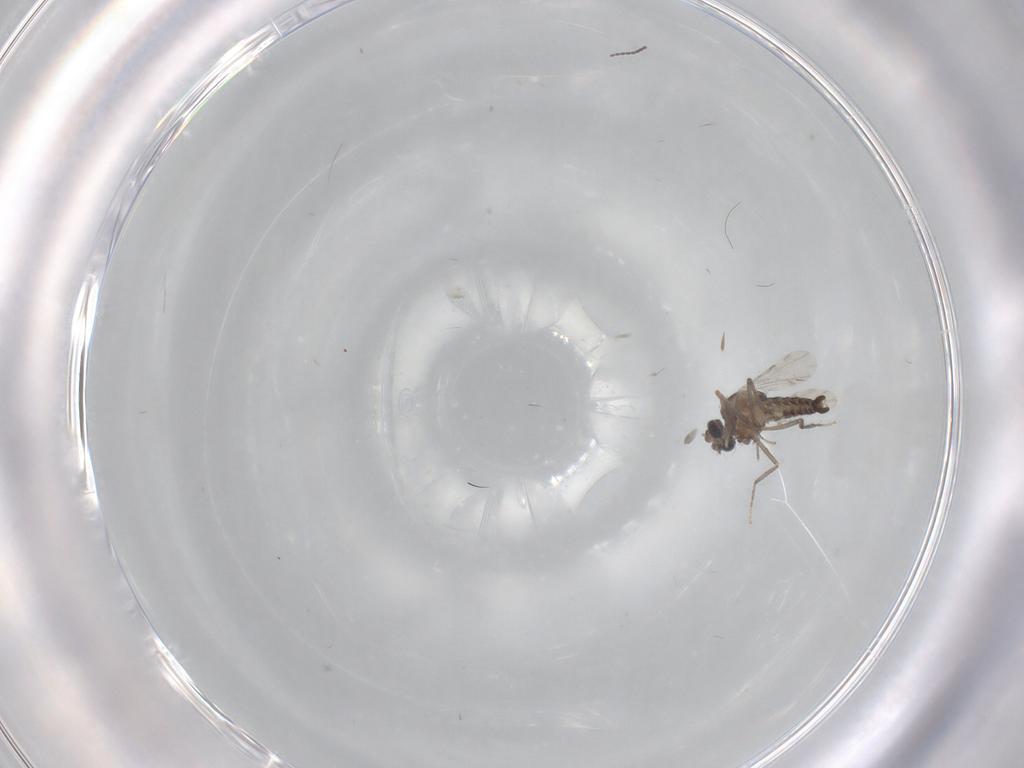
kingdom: Animalia
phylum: Arthropoda
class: Insecta
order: Diptera
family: Ceratopogonidae
